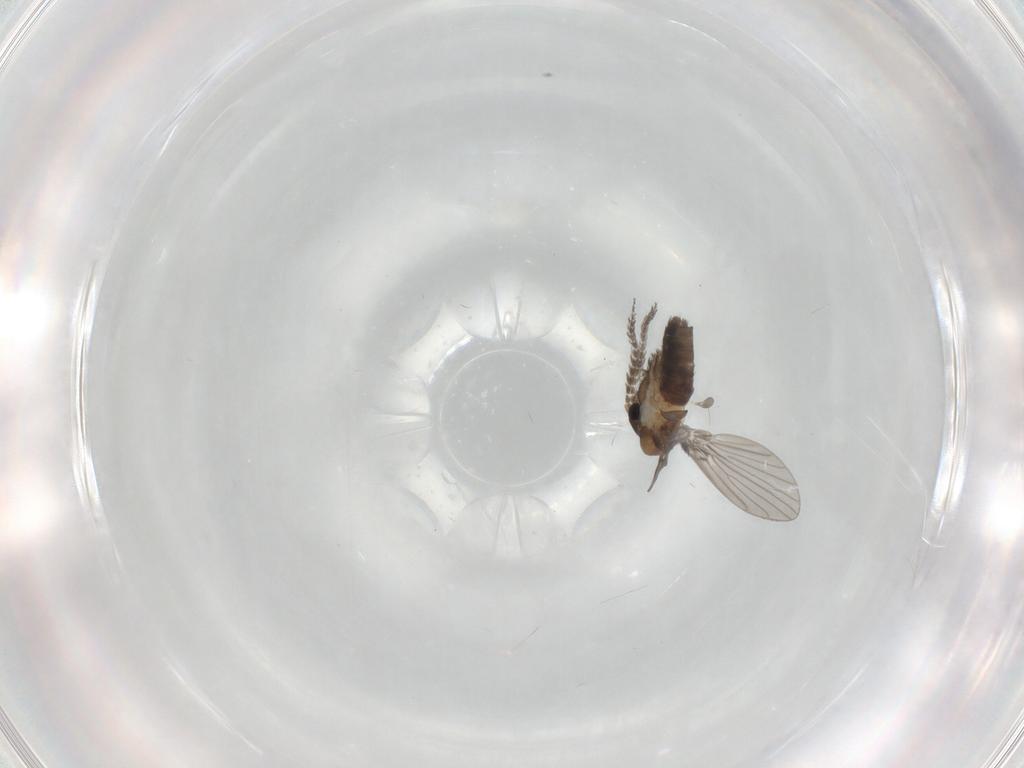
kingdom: Animalia
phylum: Arthropoda
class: Insecta
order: Diptera
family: Psychodidae
